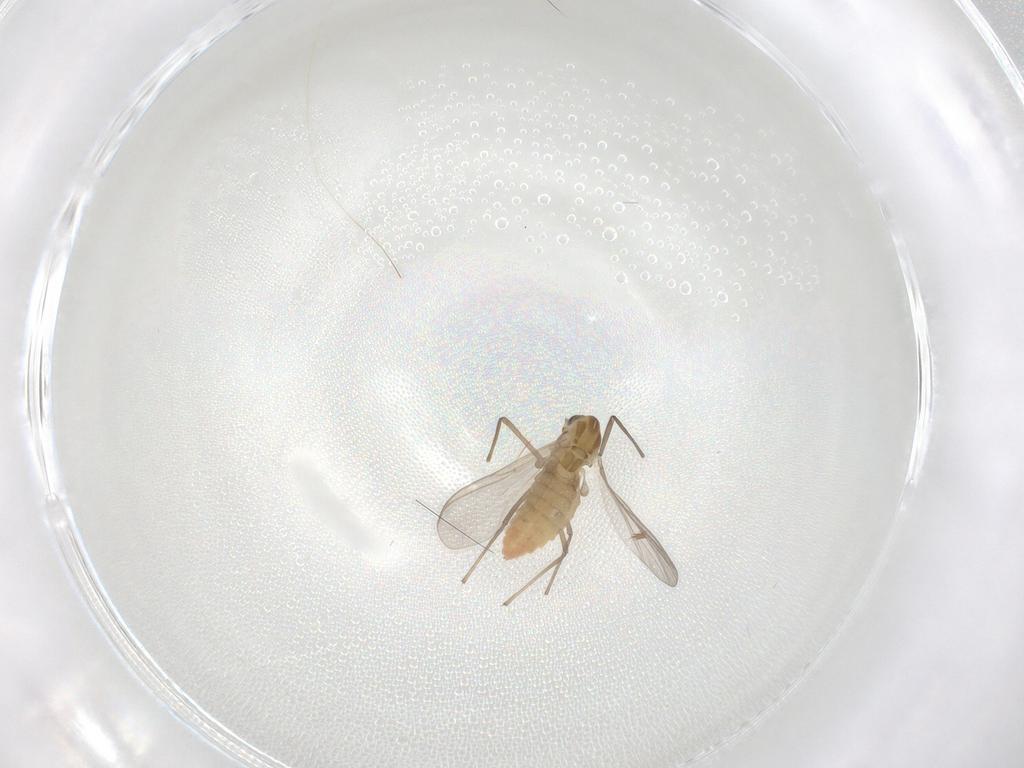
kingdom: Animalia
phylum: Arthropoda
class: Insecta
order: Diptera
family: Chironomidae
